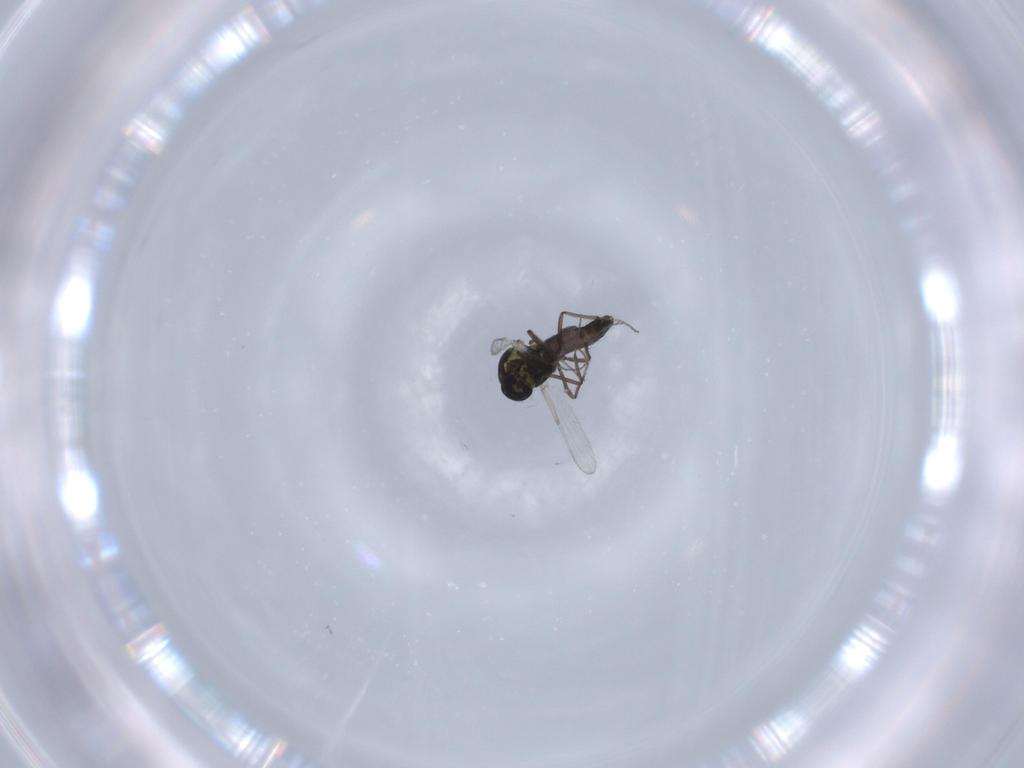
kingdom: Animalia
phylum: Arthropoda
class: Insecta
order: Diptera
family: Ceratopogonidae
